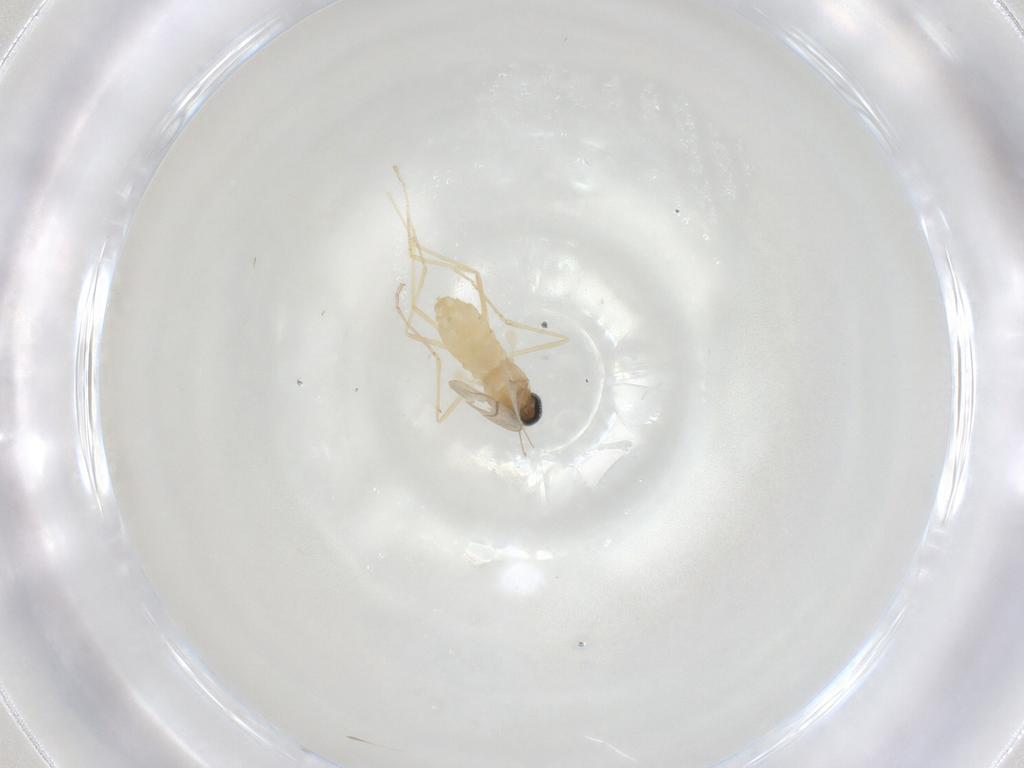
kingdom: Animalia
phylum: Arthropoda
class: Insecta
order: Diptera
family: Cecidomyiidae
